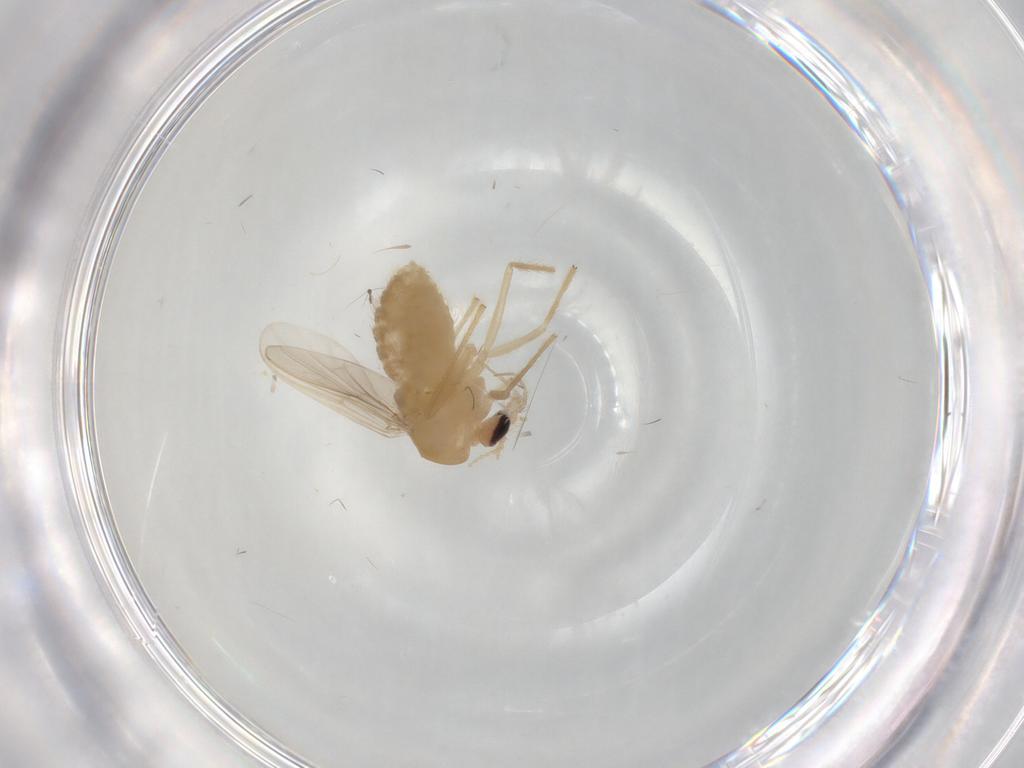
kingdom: Animalia
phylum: Arthropoda
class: Insecta
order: Diptera
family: Chironomidae
